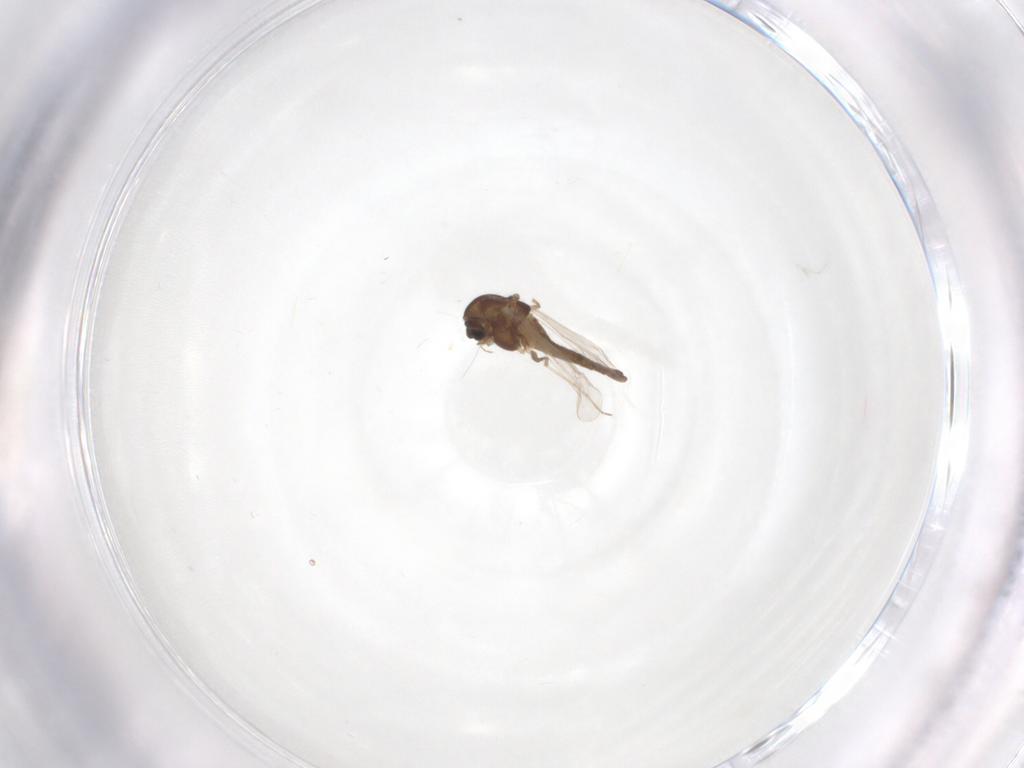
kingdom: Animalia
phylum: Arthropoda
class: Insecta
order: Diptera
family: Chironomidae
